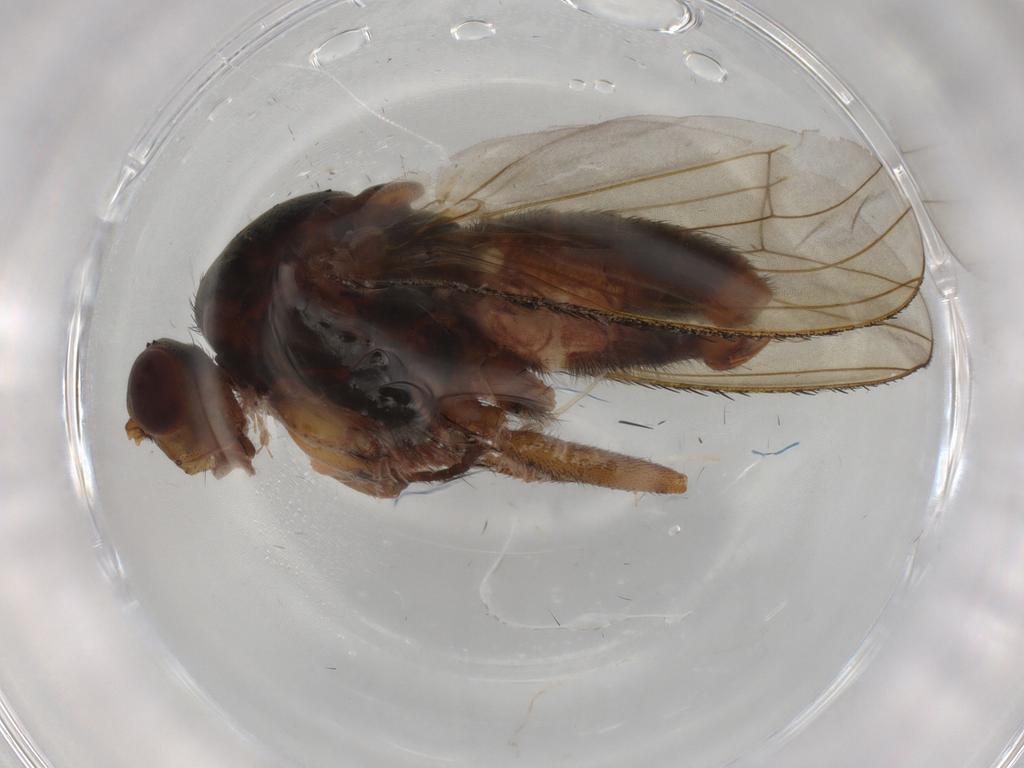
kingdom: Animalia
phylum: Arthropoda
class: Insecta
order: Diptera
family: Heleomyzidae
